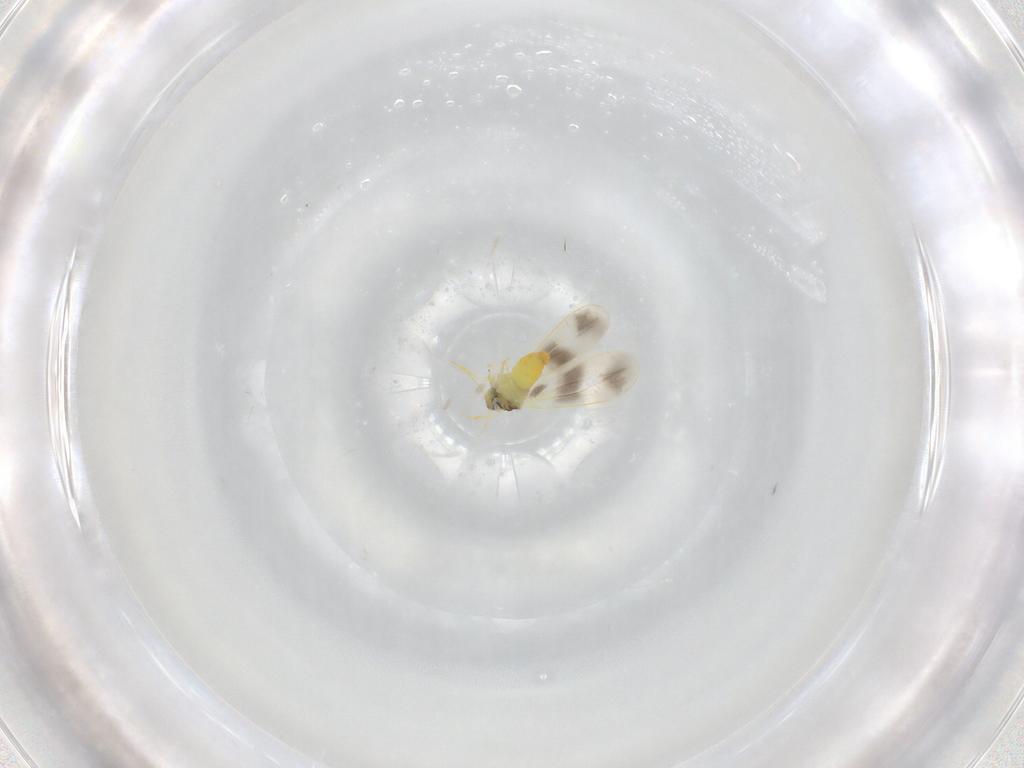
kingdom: Animalia
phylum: Arthropoda
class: Insecta
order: Hemiptera
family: Aleyrodidae
